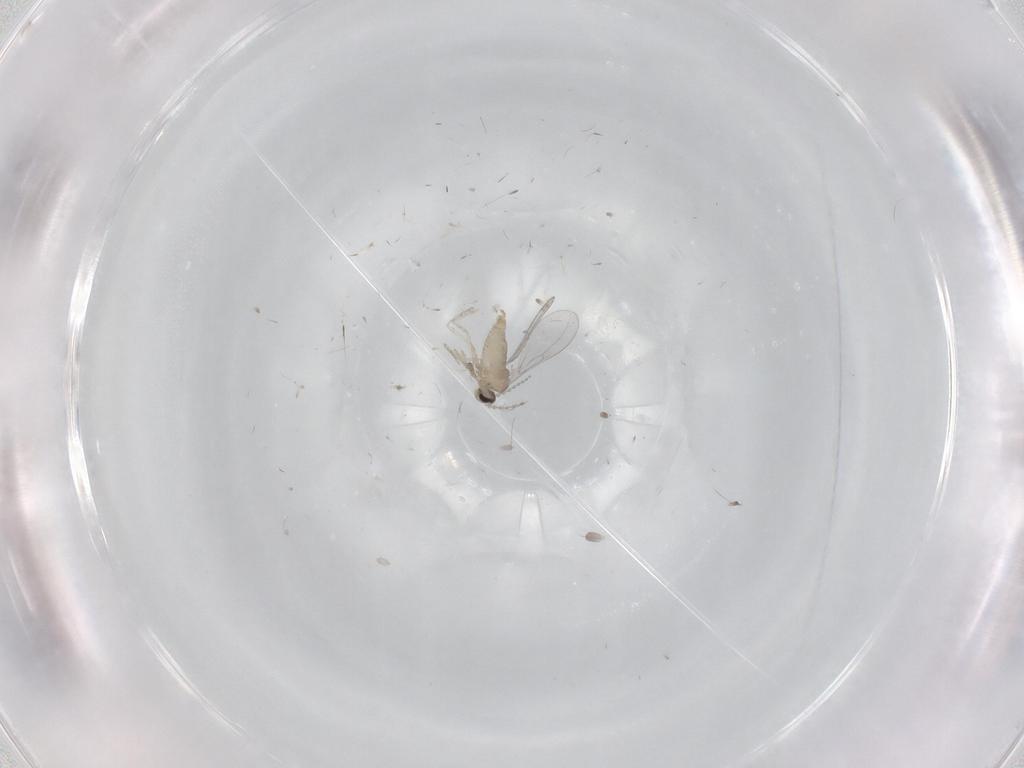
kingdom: Animalia
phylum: Arthropoda
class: Insecta
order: Diptera
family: Cecidomyiidae
